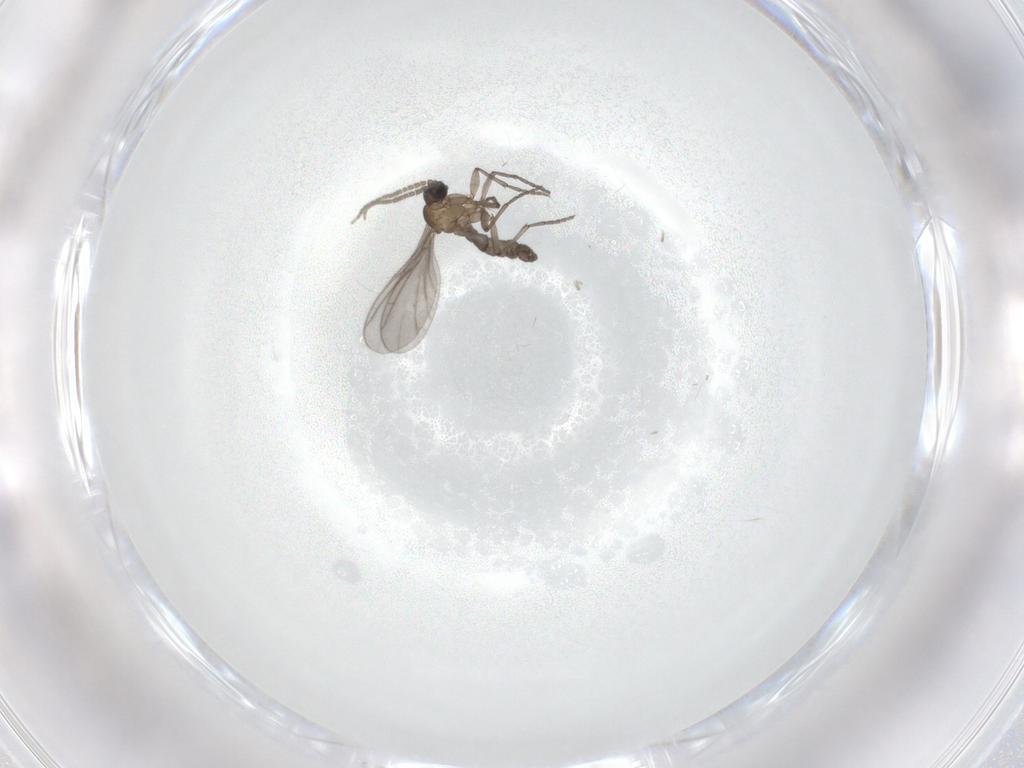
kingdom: Animalia
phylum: Arthropoda
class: Insecta
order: Diptera
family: Sciaridae
